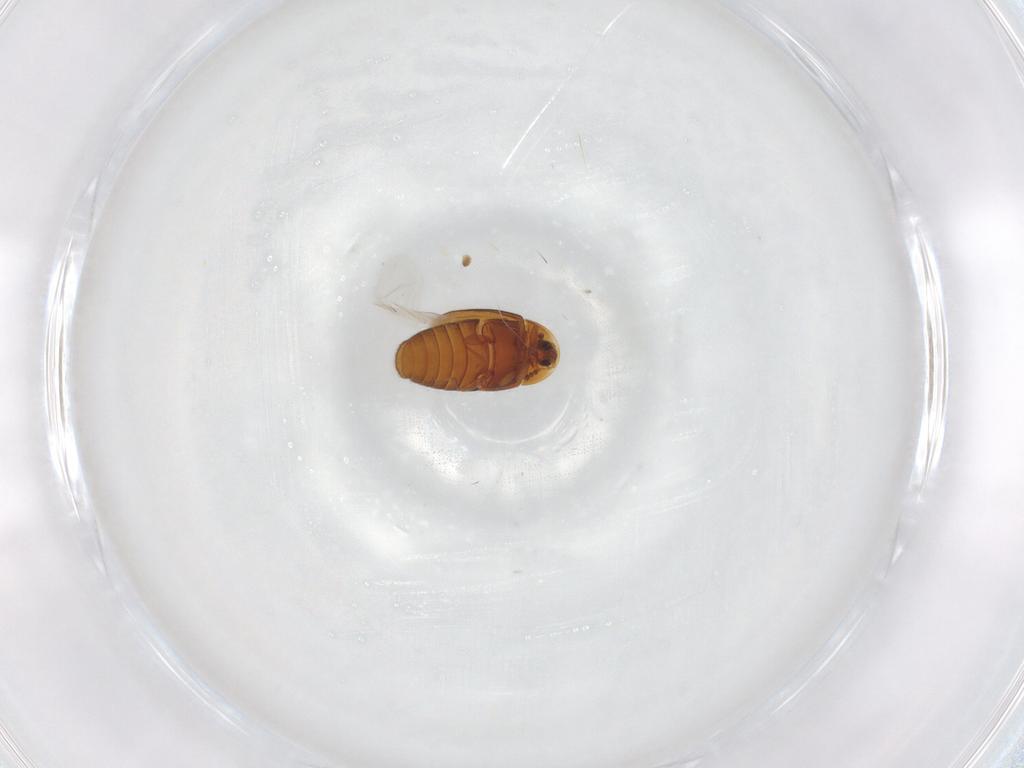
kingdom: Animalia
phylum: Arthropoda
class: Insecta
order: Coleoptera
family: Corylophidae
